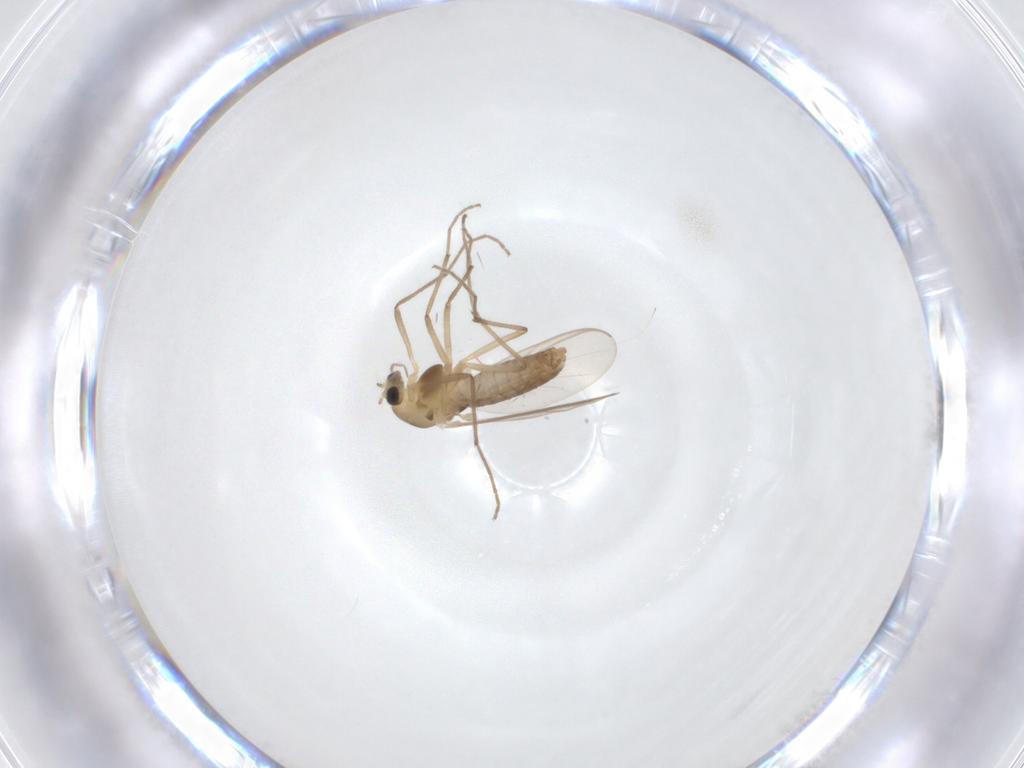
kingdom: Animalia
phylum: Arthropoda
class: Insecta
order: Diptera
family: Chironomidae
